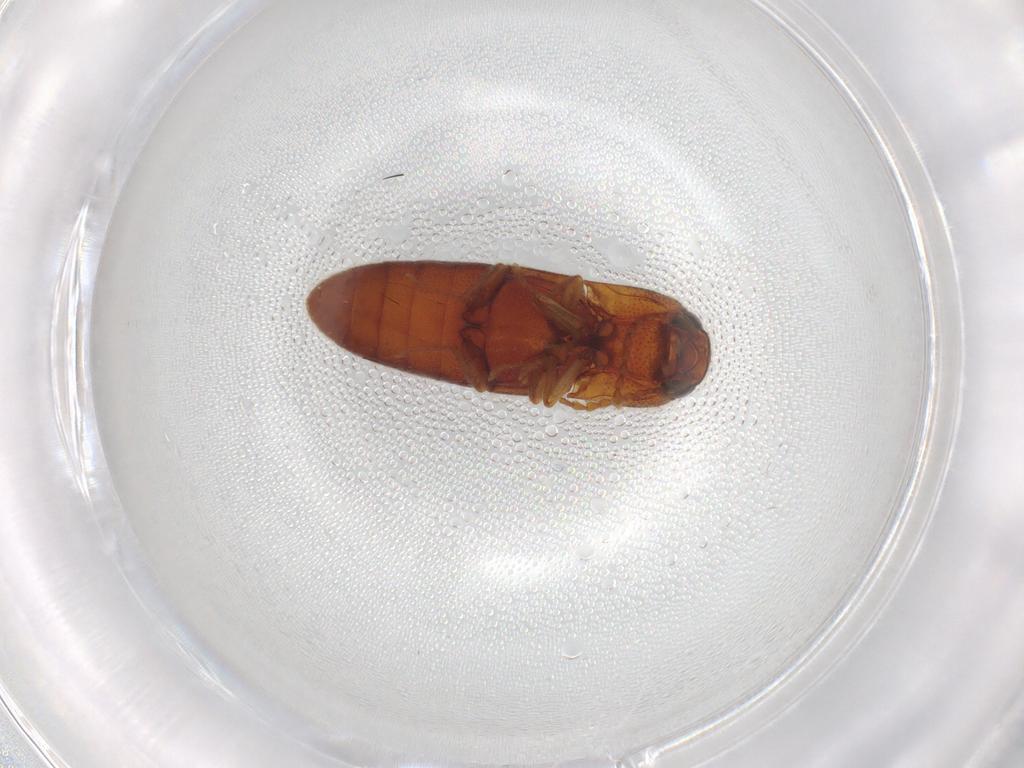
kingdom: Animalia
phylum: Arthropoda
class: Insecta
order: Coleoptera
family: Elateridae
